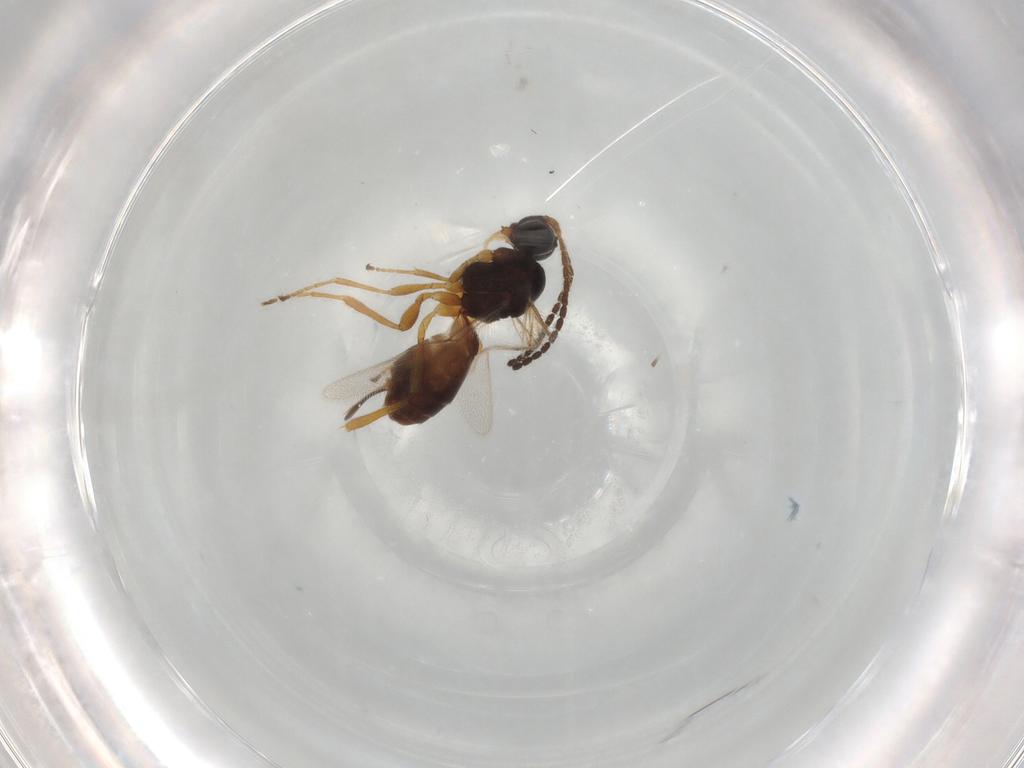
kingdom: Animalia
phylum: Arthropoda
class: Insecta
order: Hymenoptera
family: Braconidae
